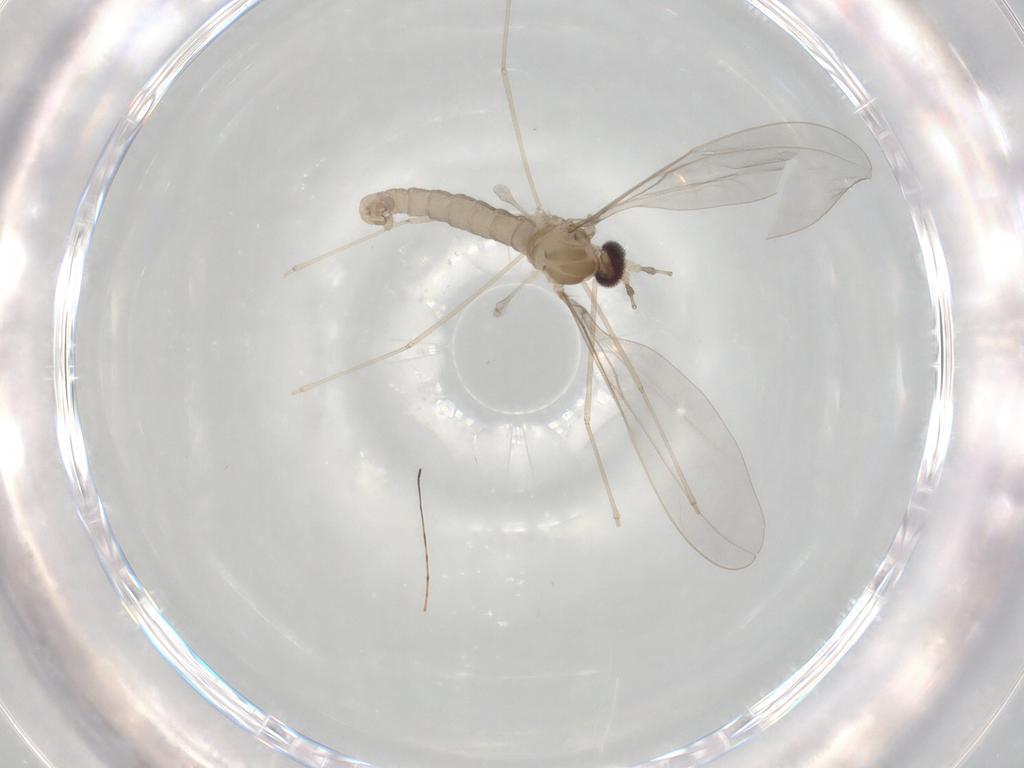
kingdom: Animalia
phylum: Arthropoda
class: Insecta
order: Diptera
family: Cecidomyiidae
